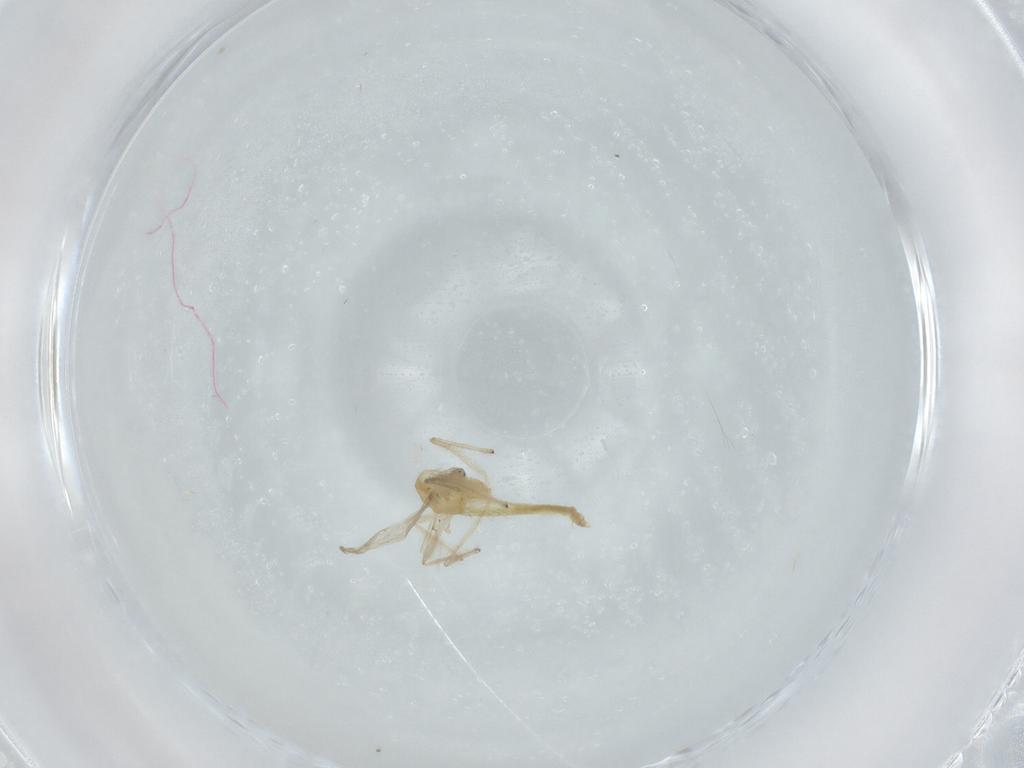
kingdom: Animalia
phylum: Arthropoda
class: Insecta
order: Diptera
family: Chironomidae
